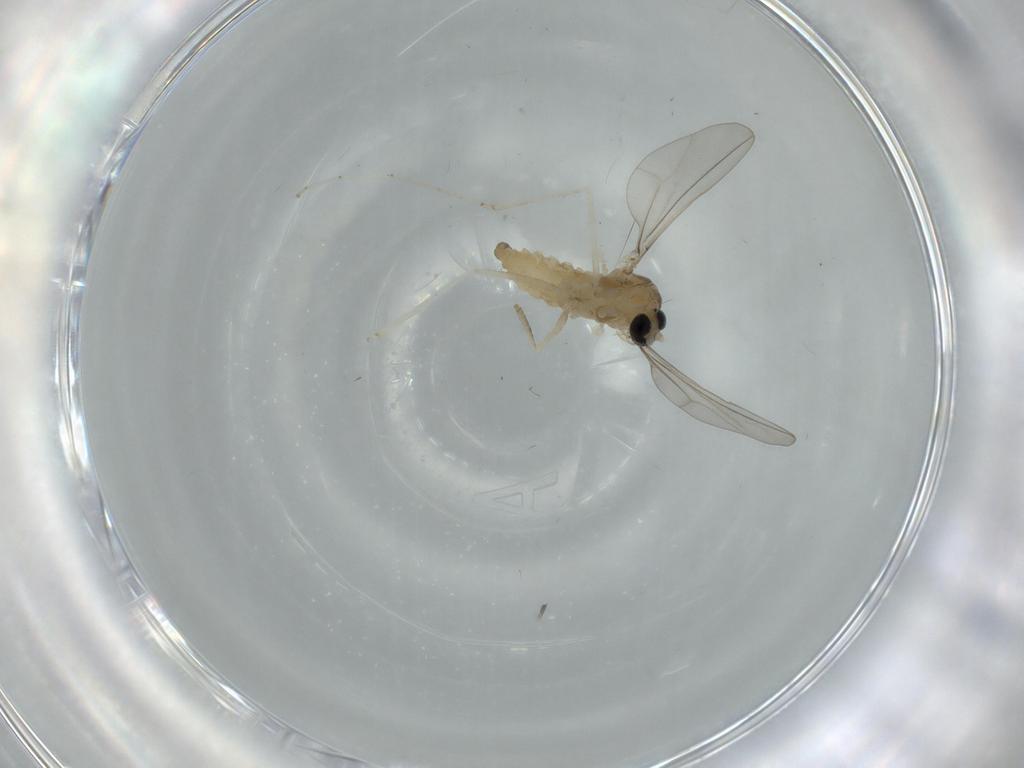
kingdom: Animalia
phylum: Arthropoda
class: Insecta
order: Diptera
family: Cecidomyiidae
